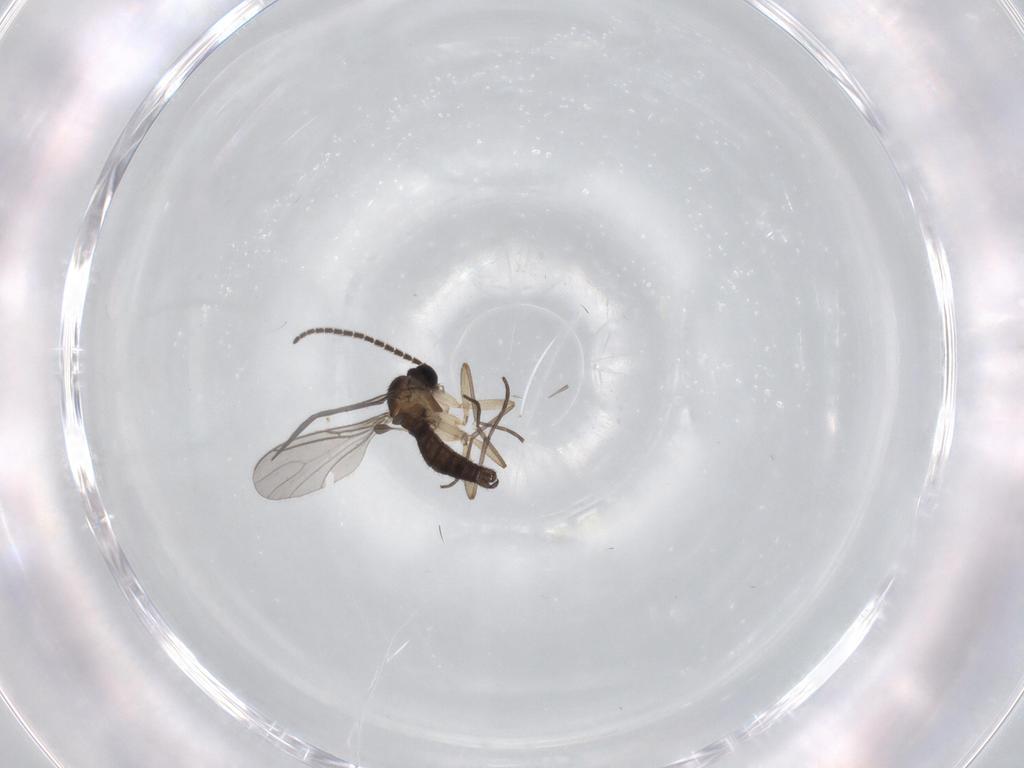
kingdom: Animalia
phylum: Arthropoda
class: Insecta
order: Diptera
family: Sciaridae
